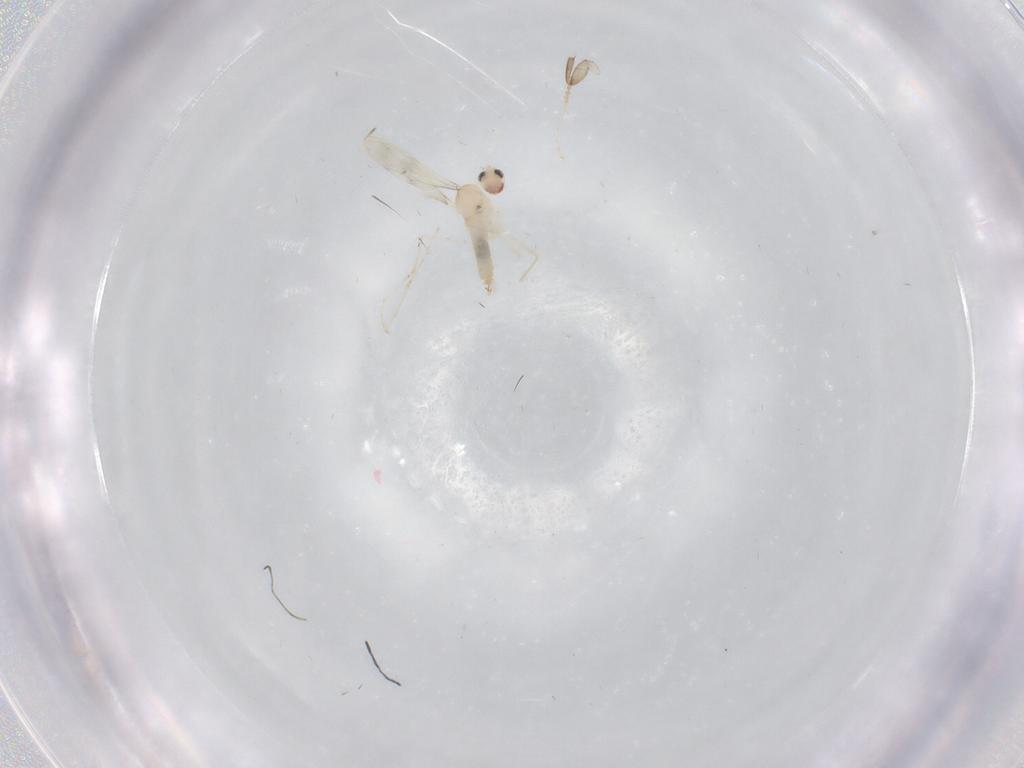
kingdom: Animalia
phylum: Arthropoda
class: Insecta
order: Diptera
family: Psychodidae
